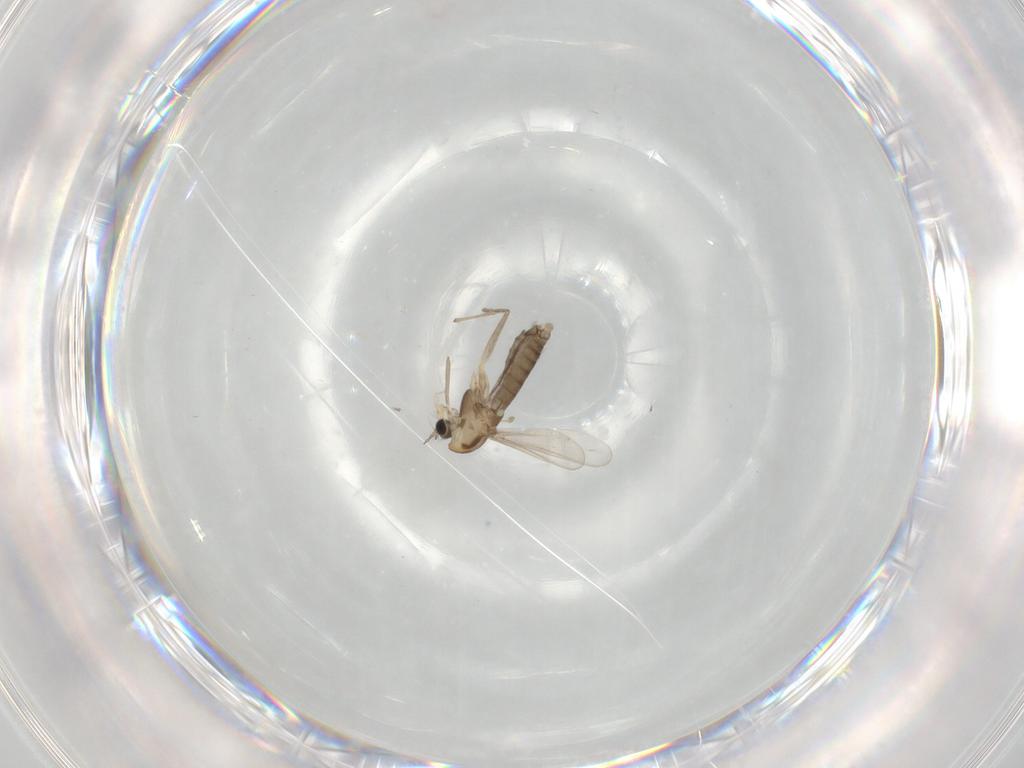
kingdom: Animalia
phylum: Arthropoda
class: Insecta
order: Diptera
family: Chironomidae
